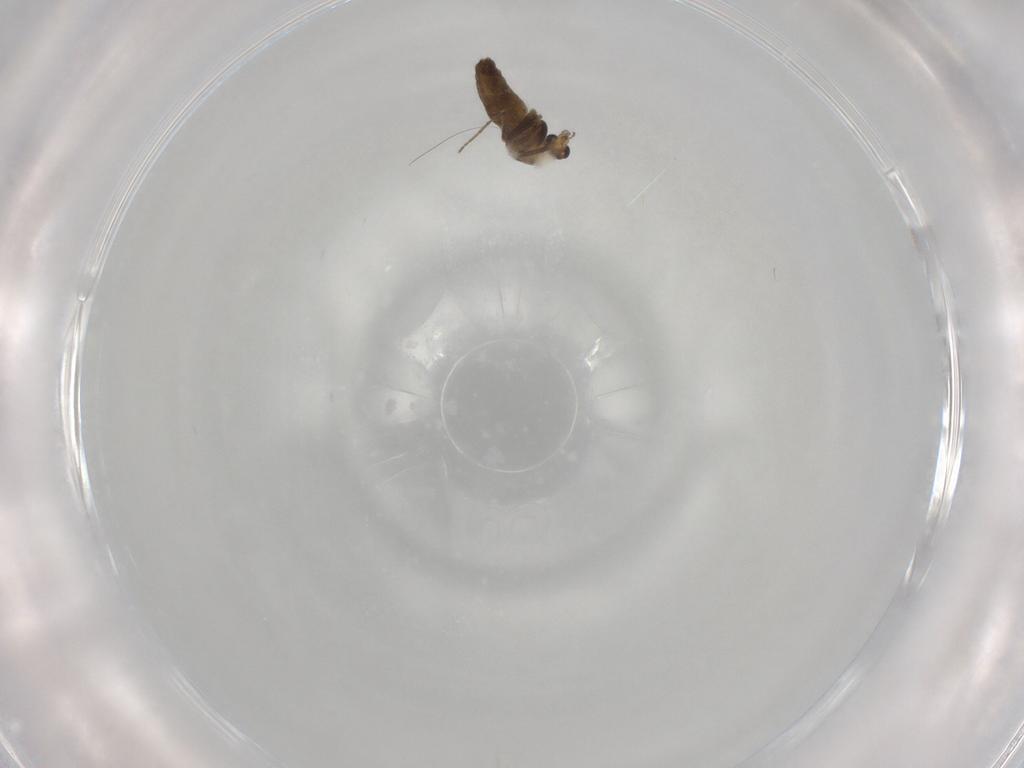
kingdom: Animalia
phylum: Arthropoda
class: Insecta
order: Diptera
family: Anthomyiidae
